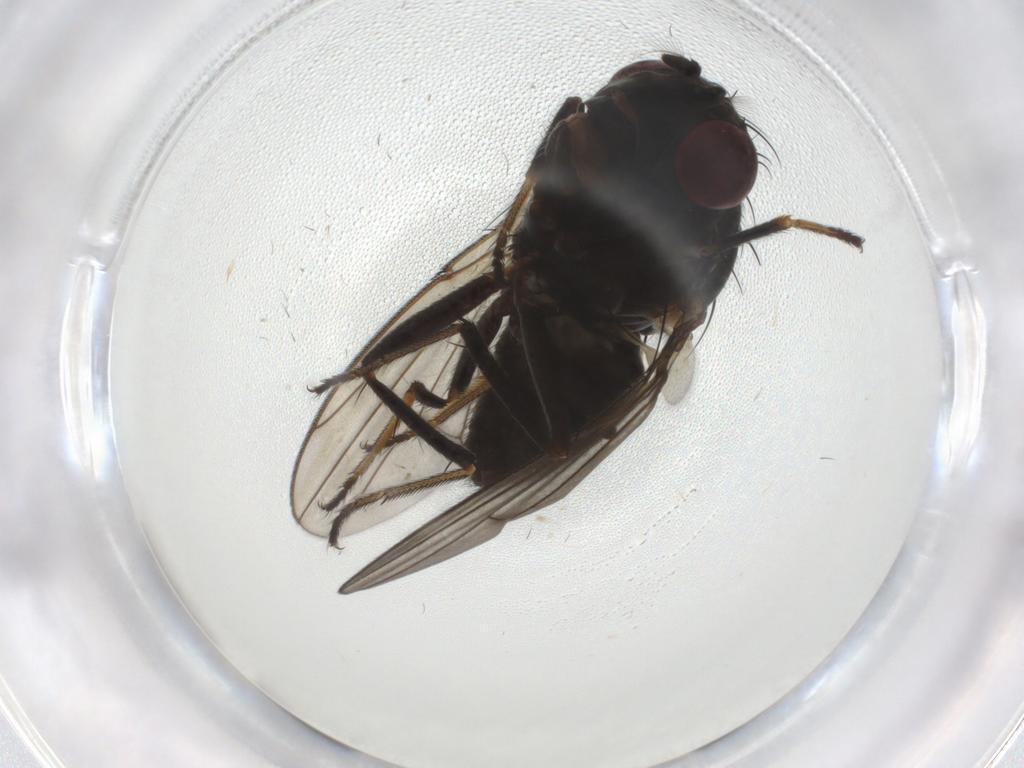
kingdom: Animalia
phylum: Arthropoda
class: Insecta
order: Diptera
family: Ephydridae
